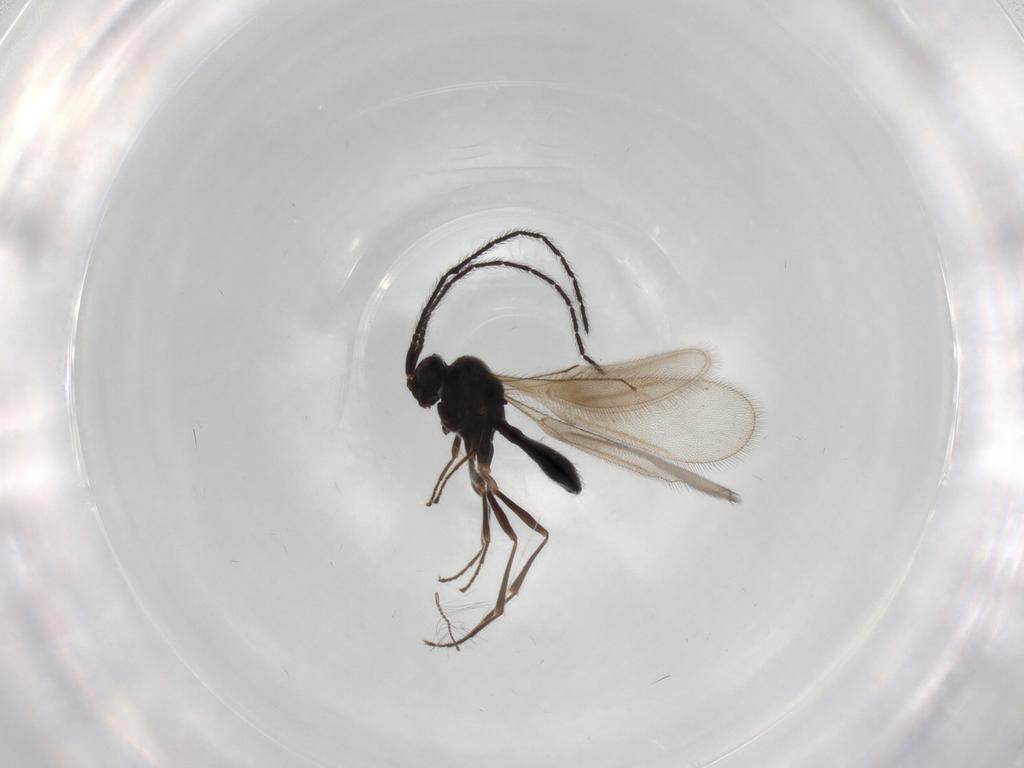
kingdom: Animalia
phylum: Arthropoda
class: Insecta
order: Hymenoptera
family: Scelionidae
